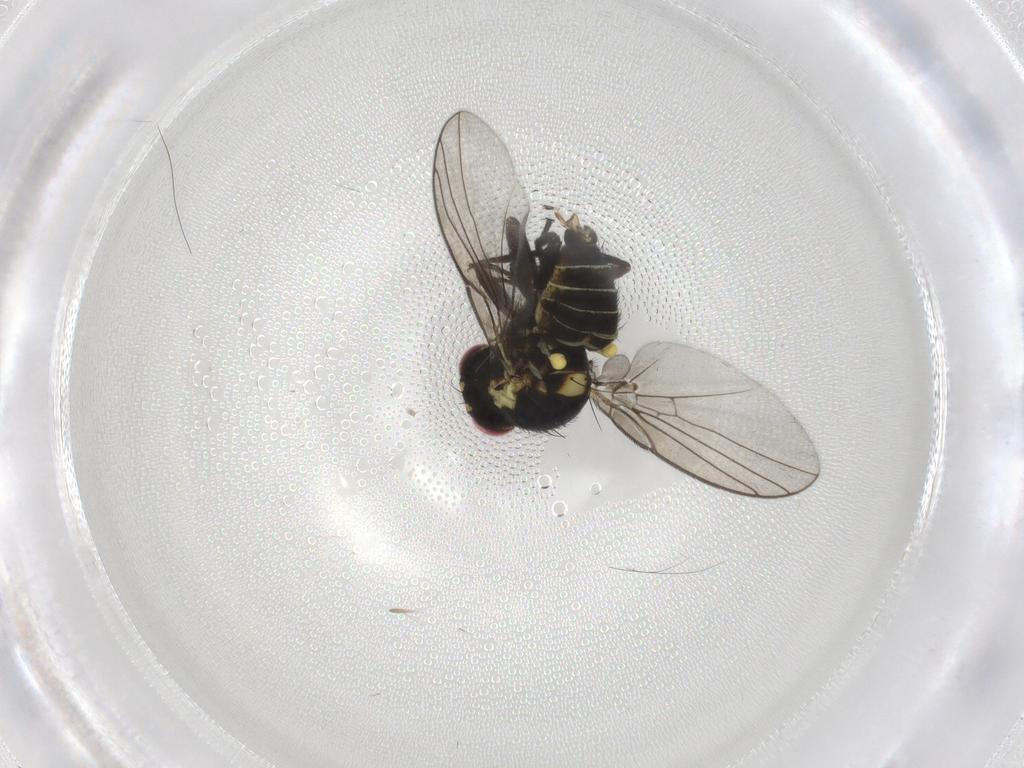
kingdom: Animalia
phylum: Arthropoda
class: Insecta
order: Diptera
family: Agromyzidae
